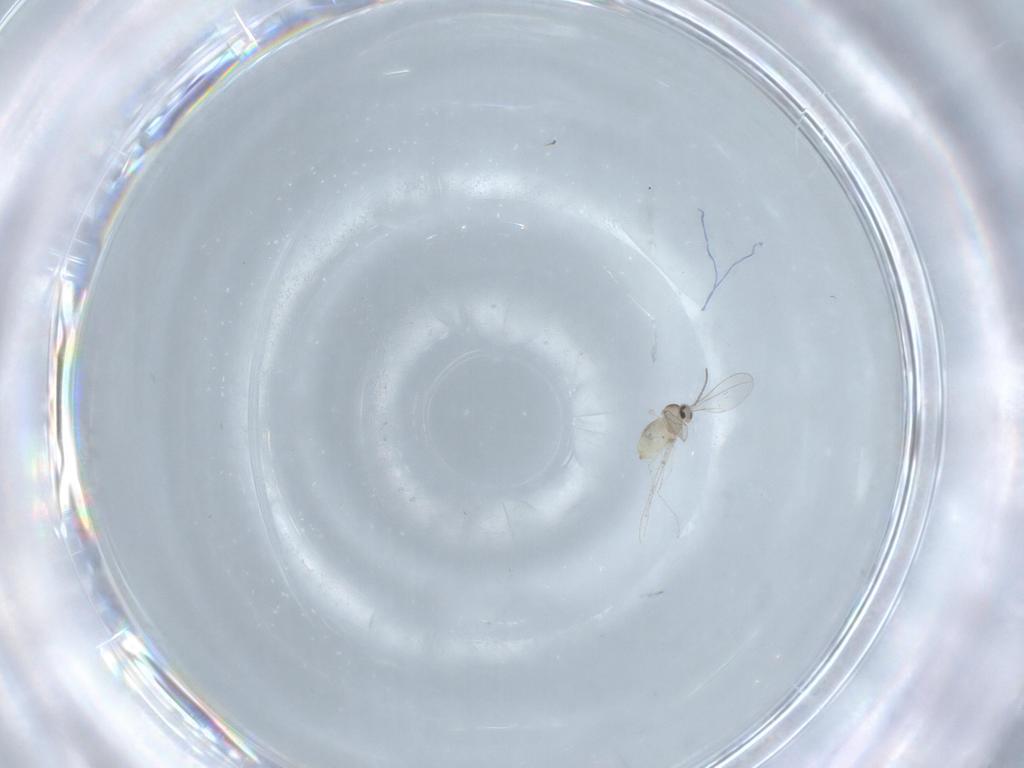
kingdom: Animalia
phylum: Arthropoda
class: Insecta
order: Diptera
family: Cecidomyiidae
